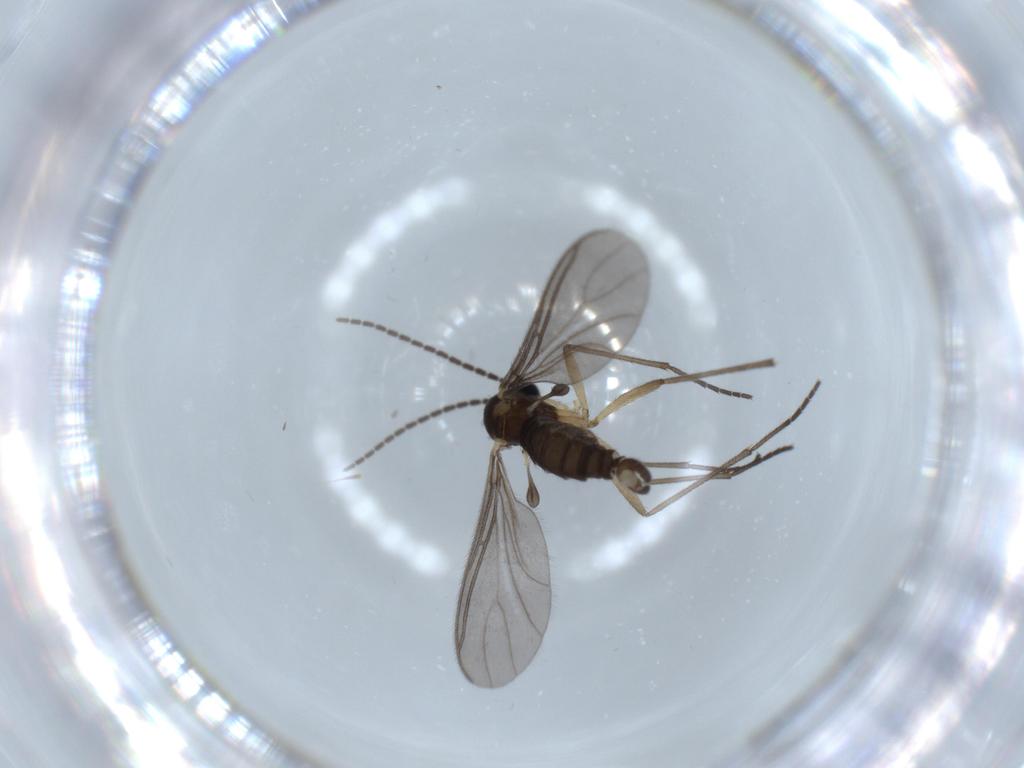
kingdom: Animalia
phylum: Arthropoda
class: Insecta
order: Diptera
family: Sciaridae
